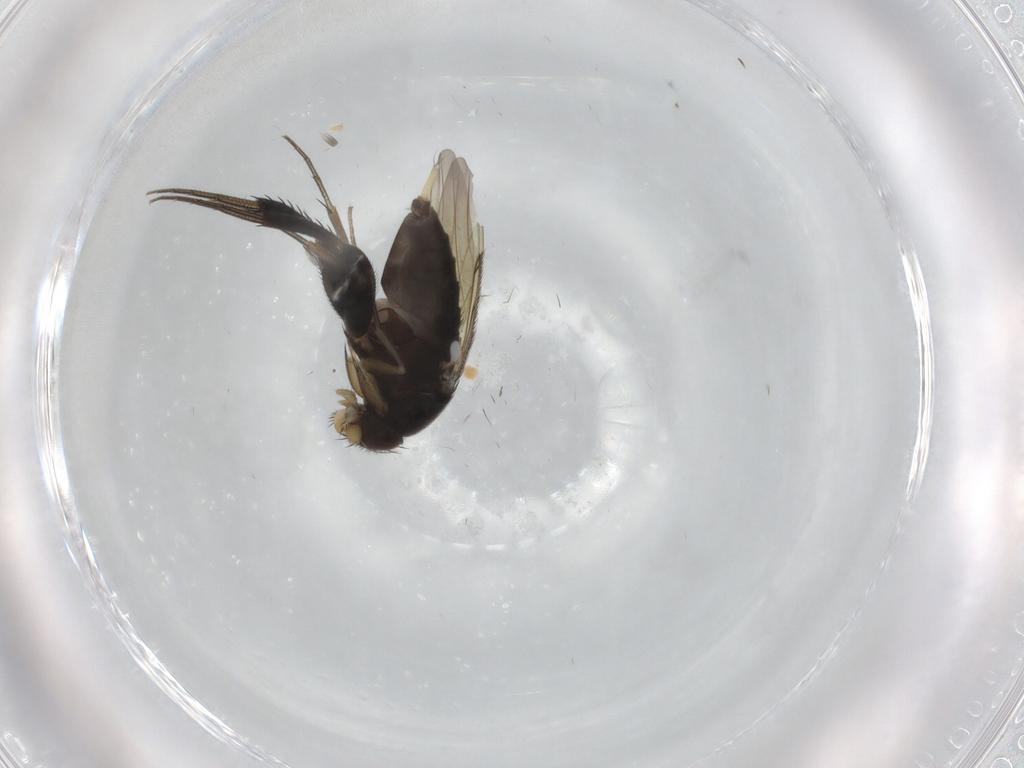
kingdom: Animalia
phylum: Arthropoda
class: Insecta
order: Diptera
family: Phoridae
